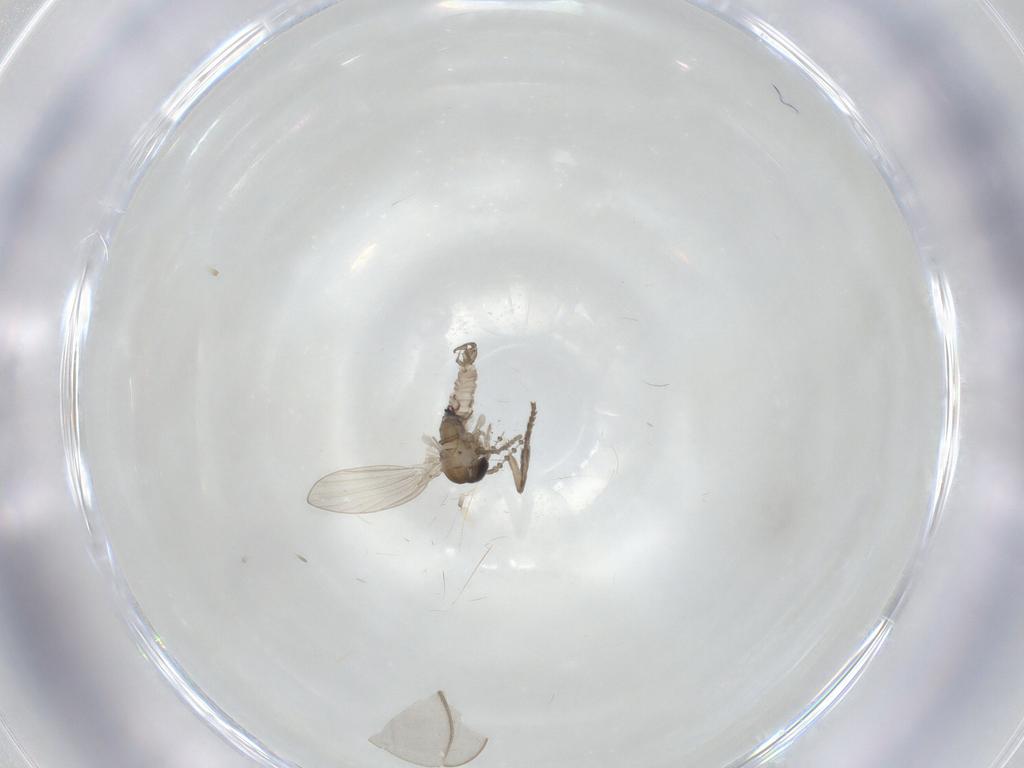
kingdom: Animalia
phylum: Arthropoda
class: Insecta
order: Diptera
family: Psychodidae
